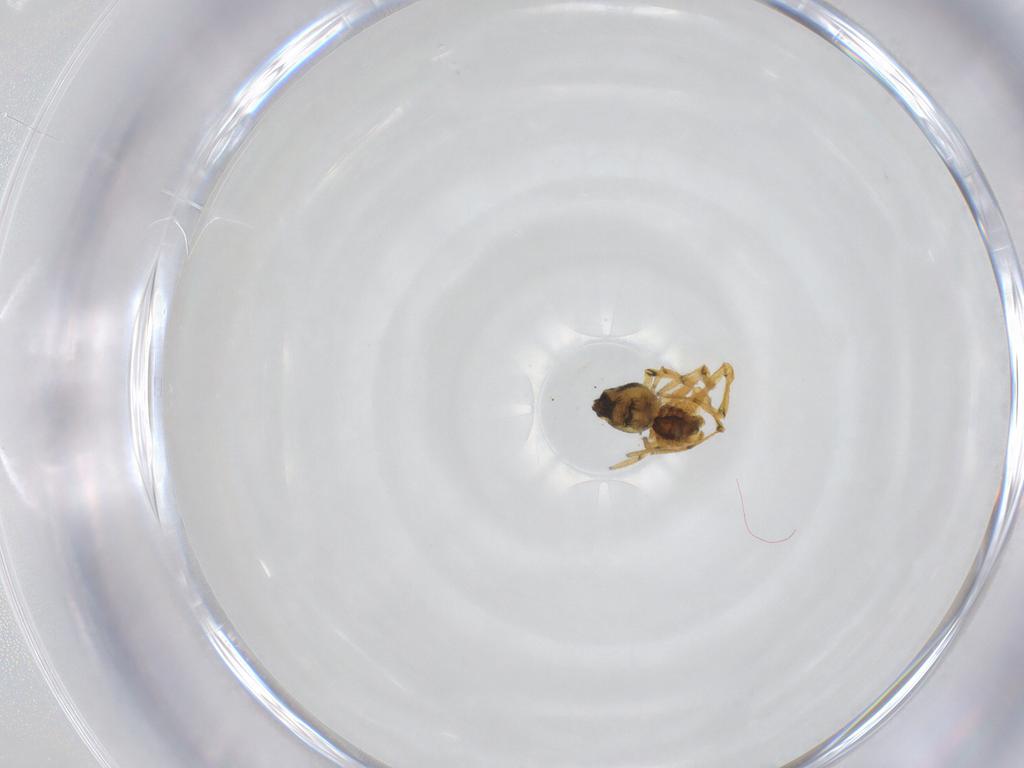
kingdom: Animalia
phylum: Arthropoda
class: Arachnida
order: Araneae
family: Theridiidae
